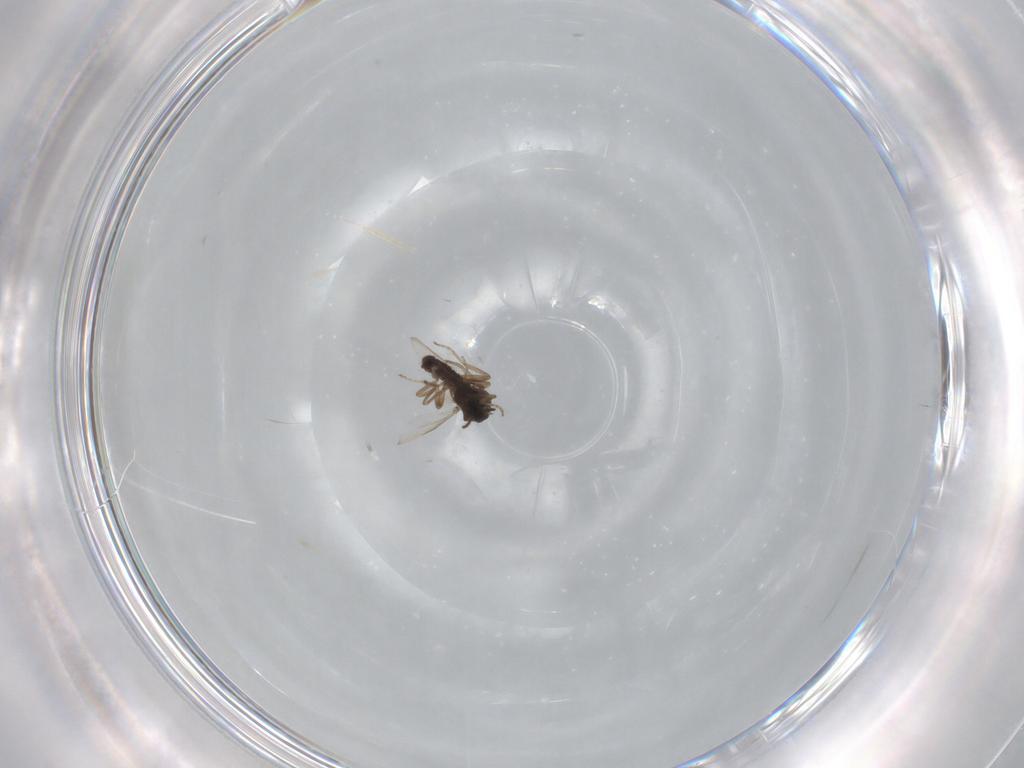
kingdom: Animalia
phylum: Arthropoda
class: Insecta
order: Diptera
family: Ceratopogonidae
